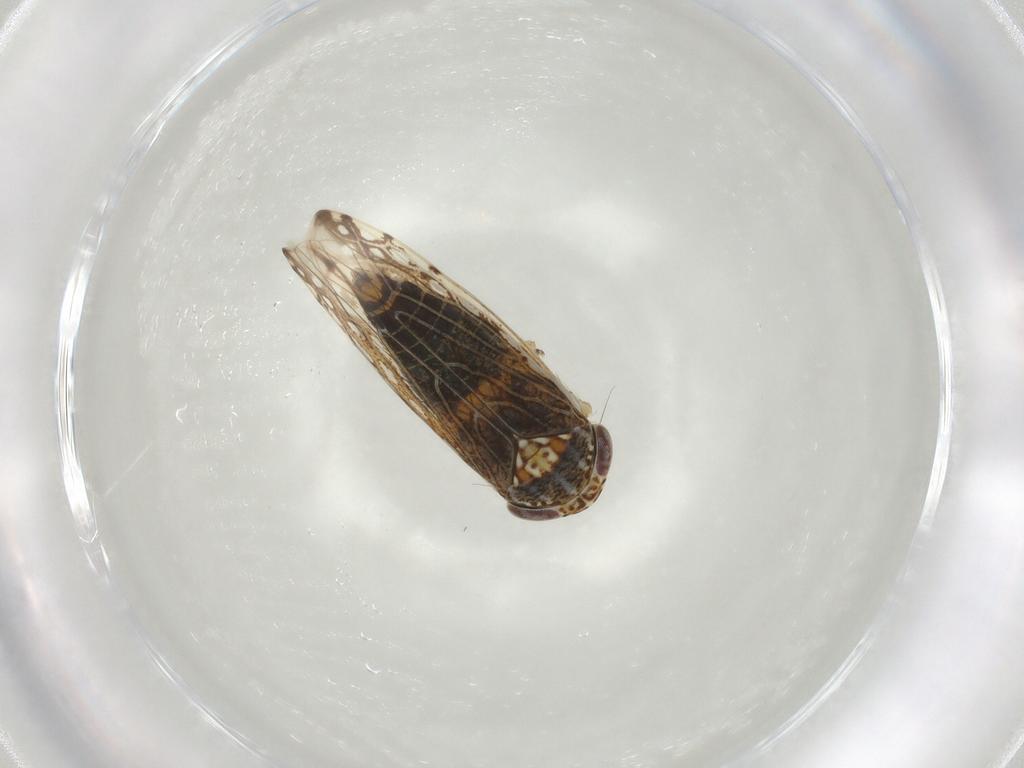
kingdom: Animalia
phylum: Arthropoda
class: Insecta
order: Hemiptera
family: Cicadellidae
